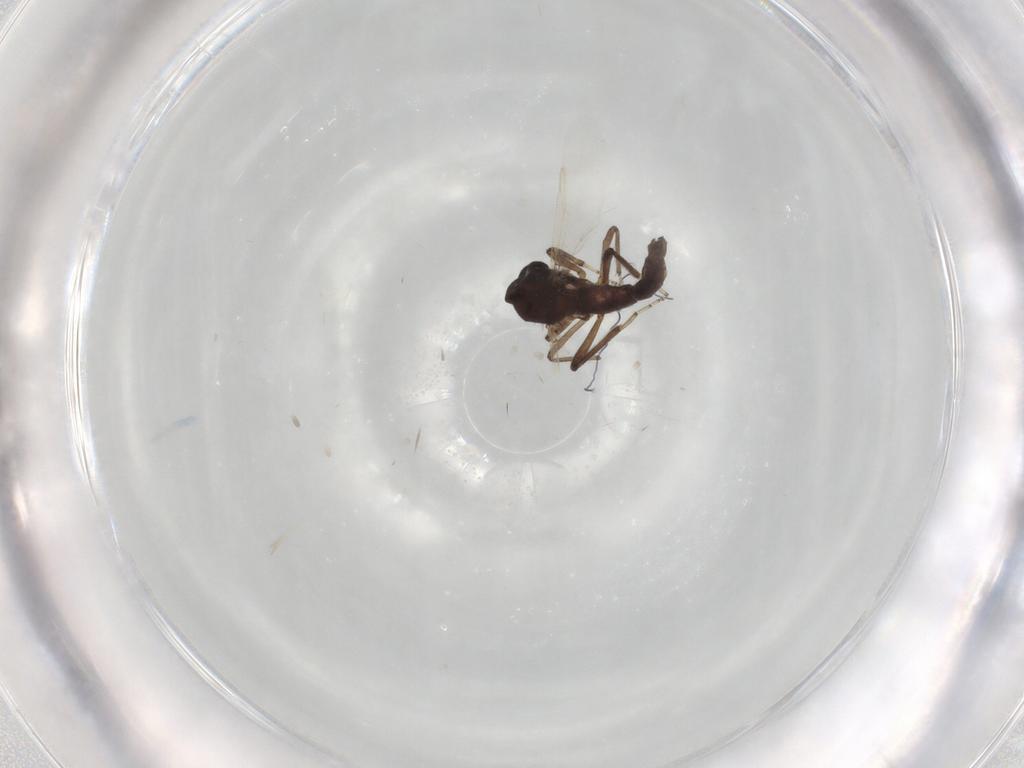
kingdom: Animalia
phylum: Arthropoda
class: Insecta
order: Diptera
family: Ceratopogonidae
